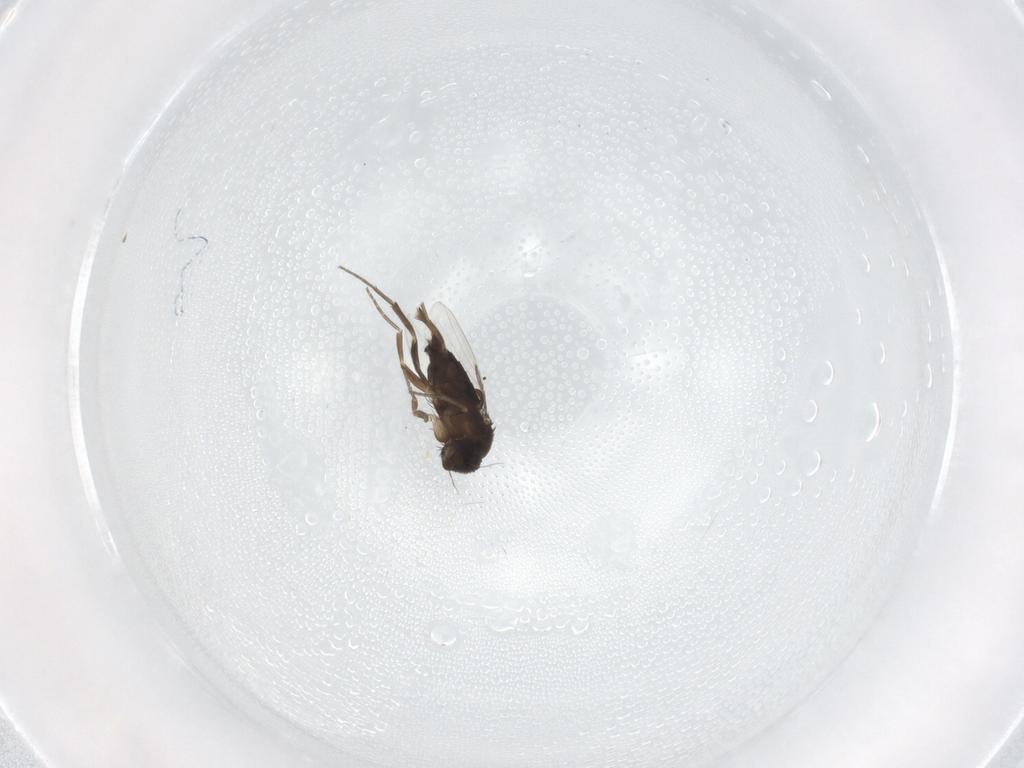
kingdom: Animalia
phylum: Arthropoda
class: Insecta
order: Diptera
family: Phoridae
